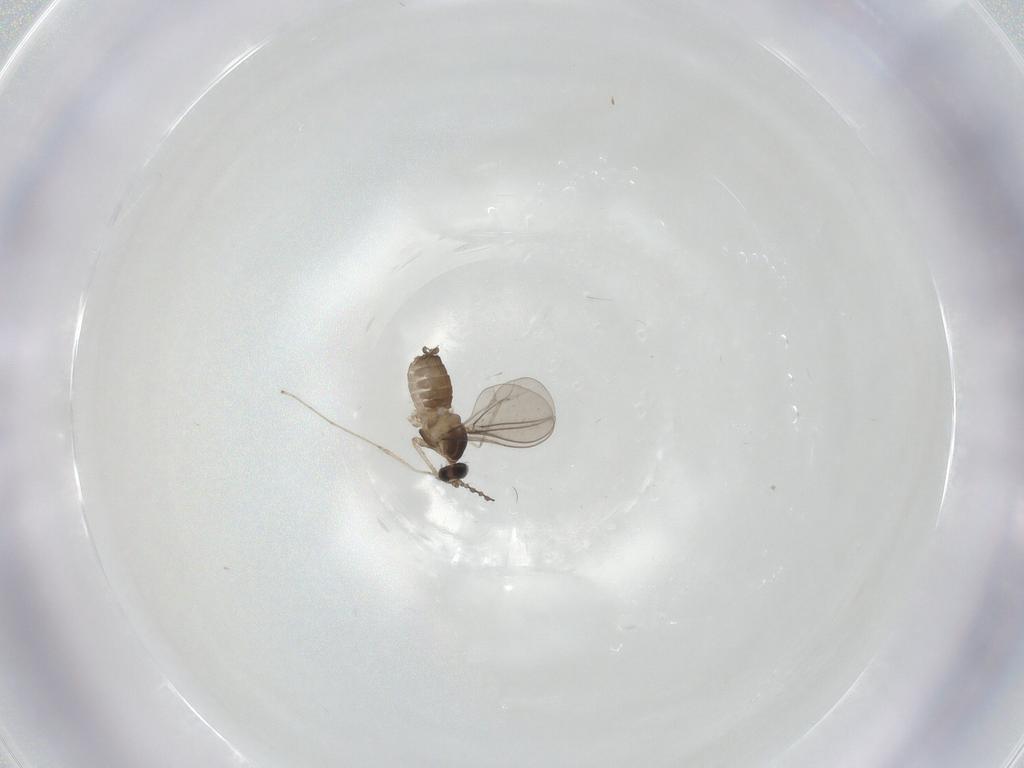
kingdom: Animalia
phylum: Arthropoda
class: Insecta
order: Diptera
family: Cecidomyiidae
